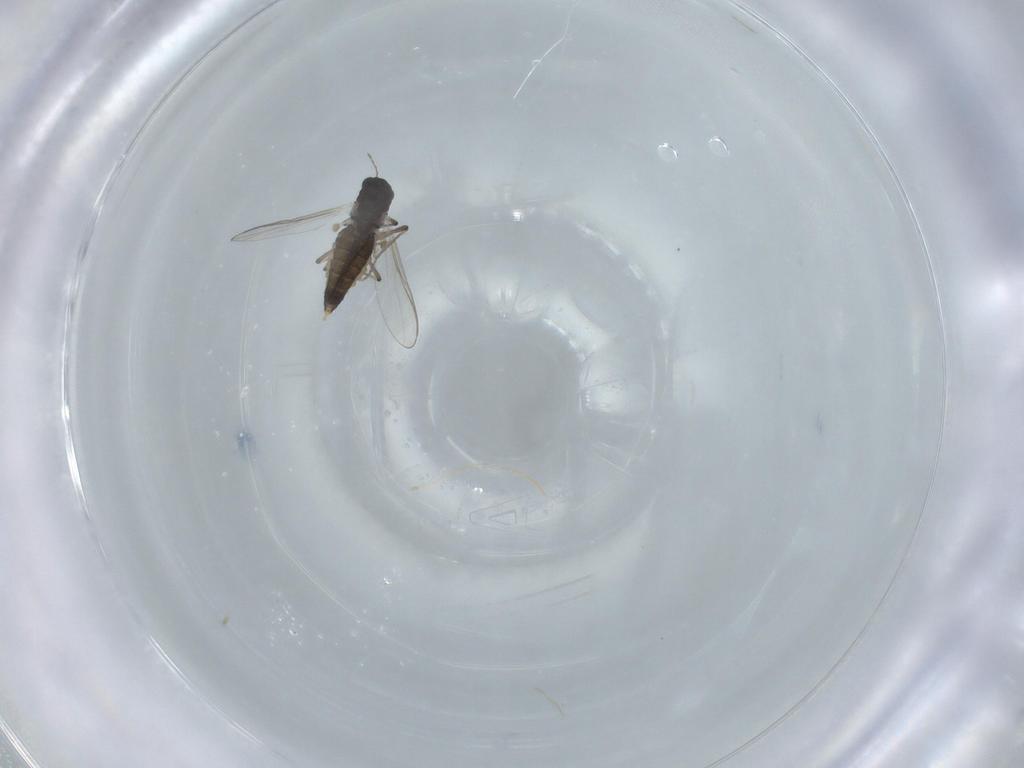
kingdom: Animalia
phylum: Arthropoda
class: Insecta
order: Diptera
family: Chironomidae
